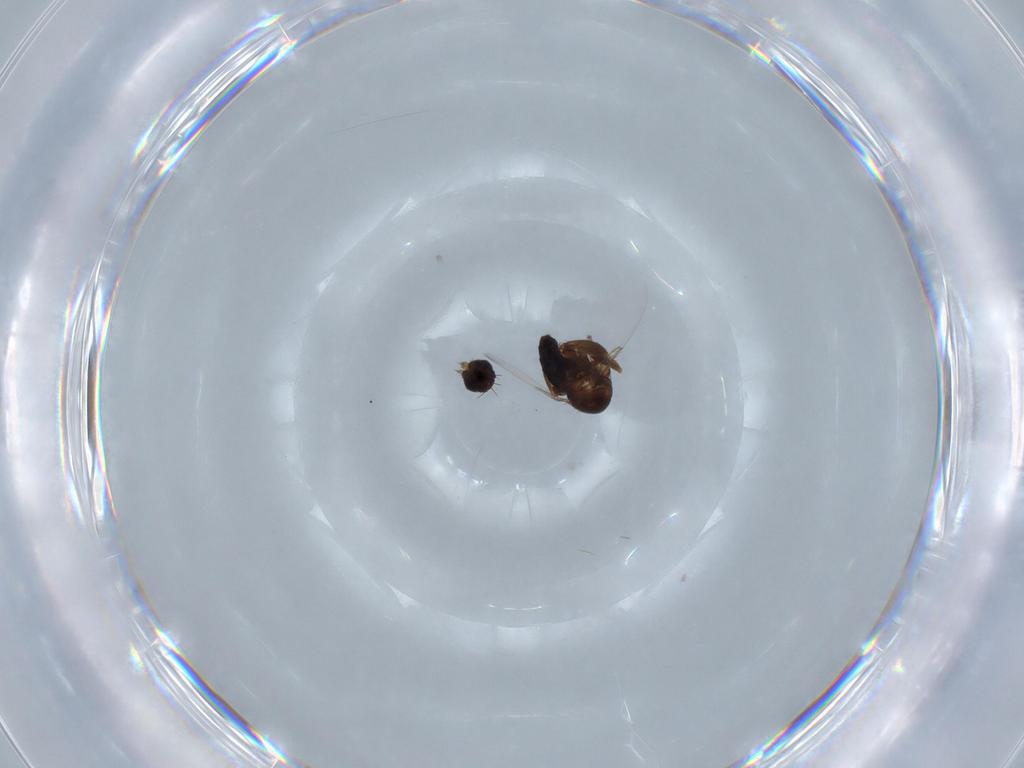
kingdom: Animalia
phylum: Arthropoda
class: Insecta
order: Diptera
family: Phoridae
